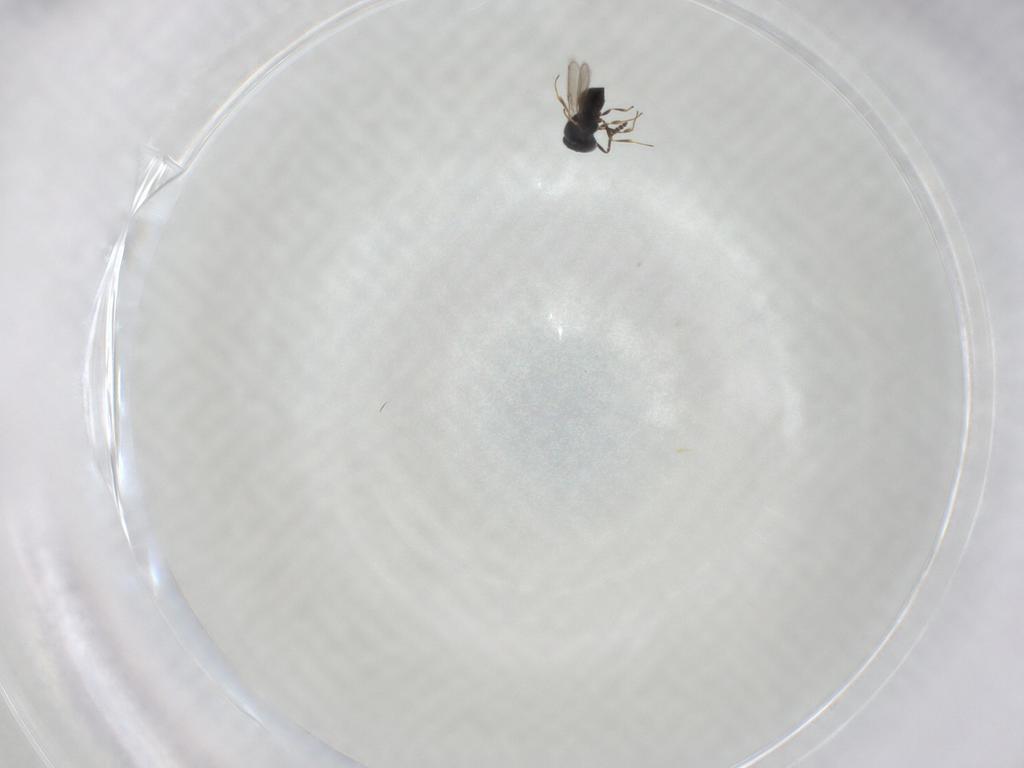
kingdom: Animalia
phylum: Arthropoda
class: Insecta
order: Hymenoptera
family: Scelionidae
